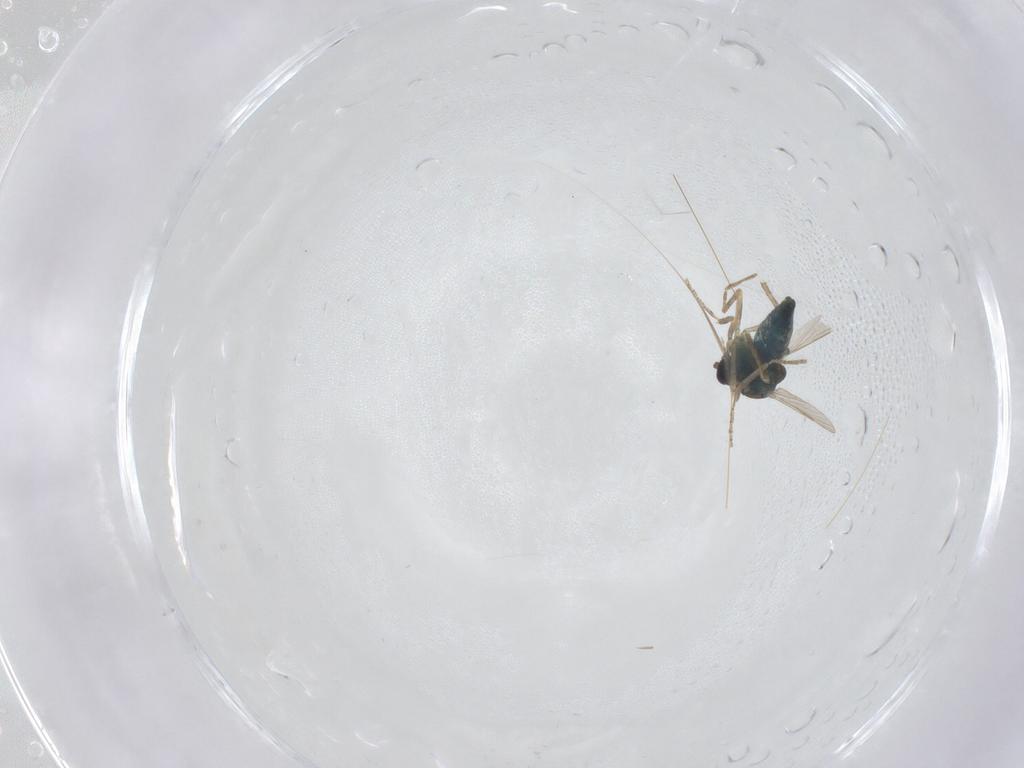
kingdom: Animalia
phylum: Arthropoda
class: Insecta
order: Diptera
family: Ceratopogonidae
